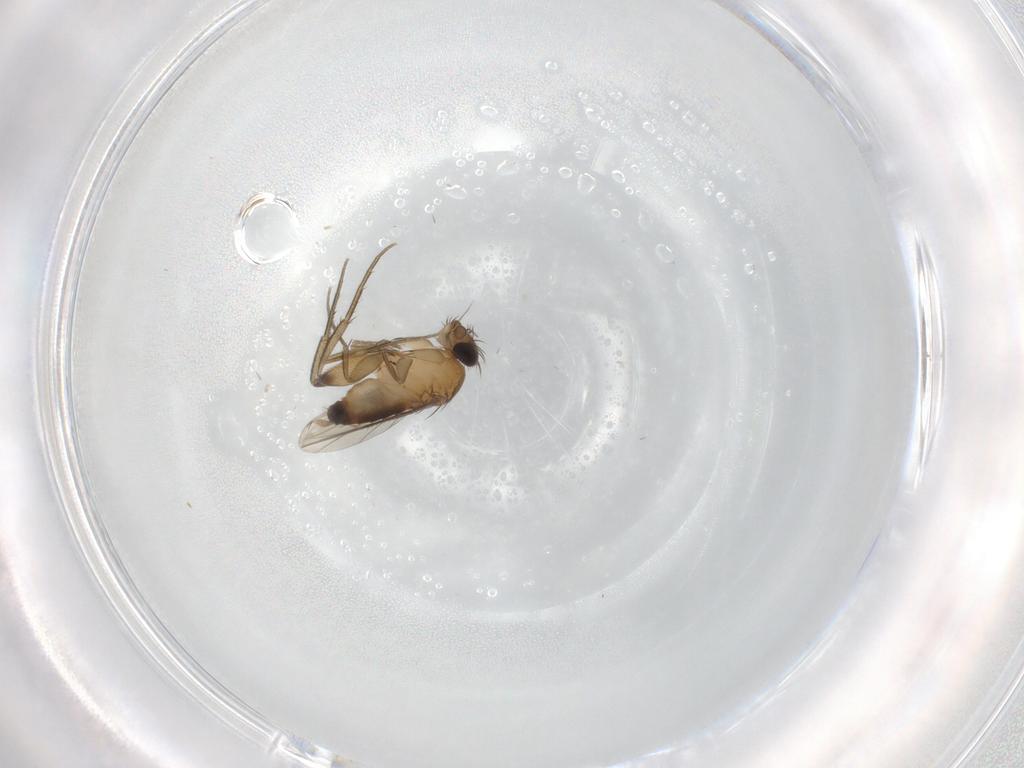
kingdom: Animalia
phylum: Arthropoda
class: Insecta
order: Diptera
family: Phoridae
